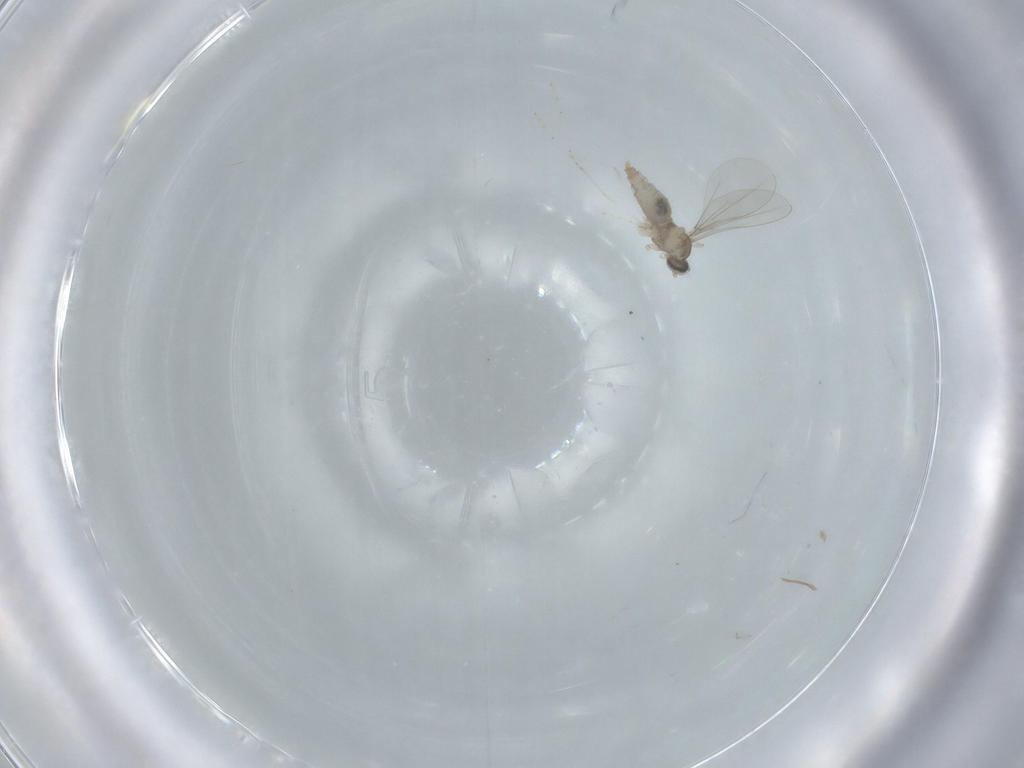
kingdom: Animalia
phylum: Arthropoda
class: Insecta
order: Diptera
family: Cecidomyiidae
